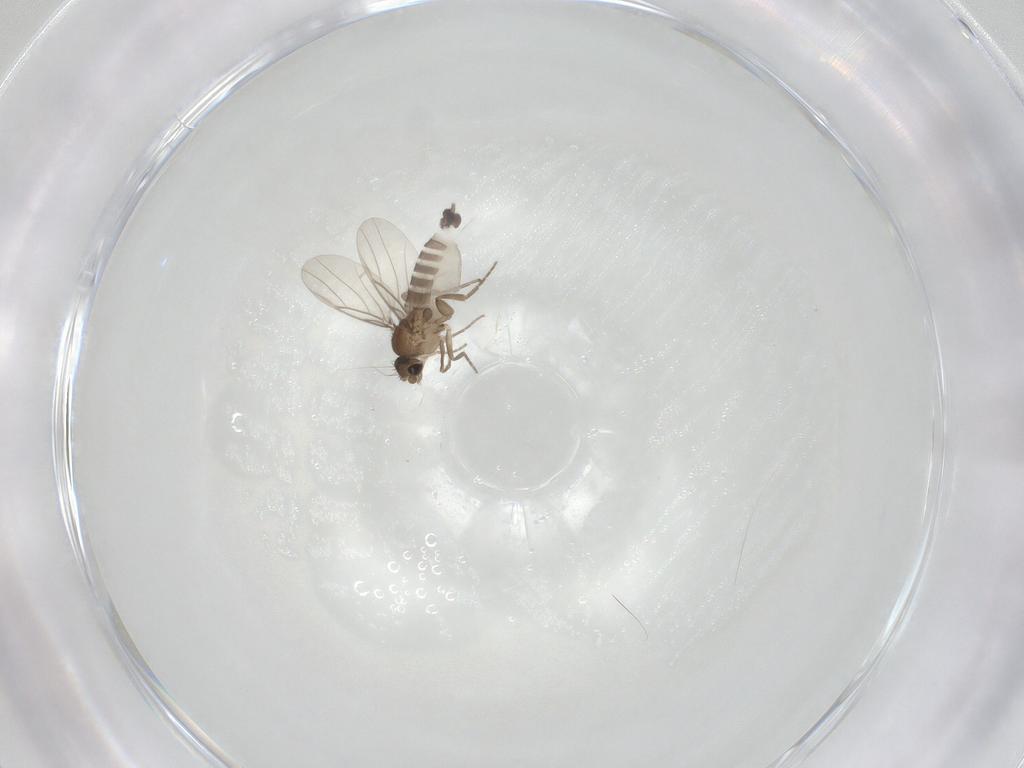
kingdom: Animalia
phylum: Arthropoda
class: Insecta
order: Diptera
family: Phoridae
